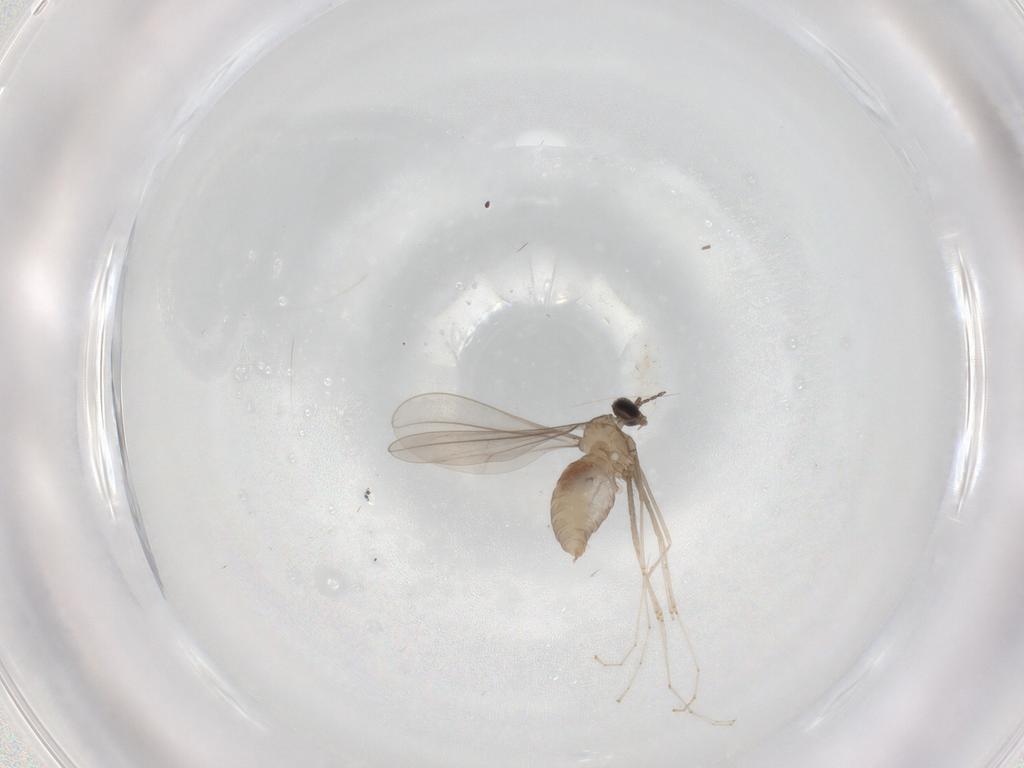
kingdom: Animalia
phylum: Arthropoda
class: Insecta
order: Diptera
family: Cecidomyiidae
